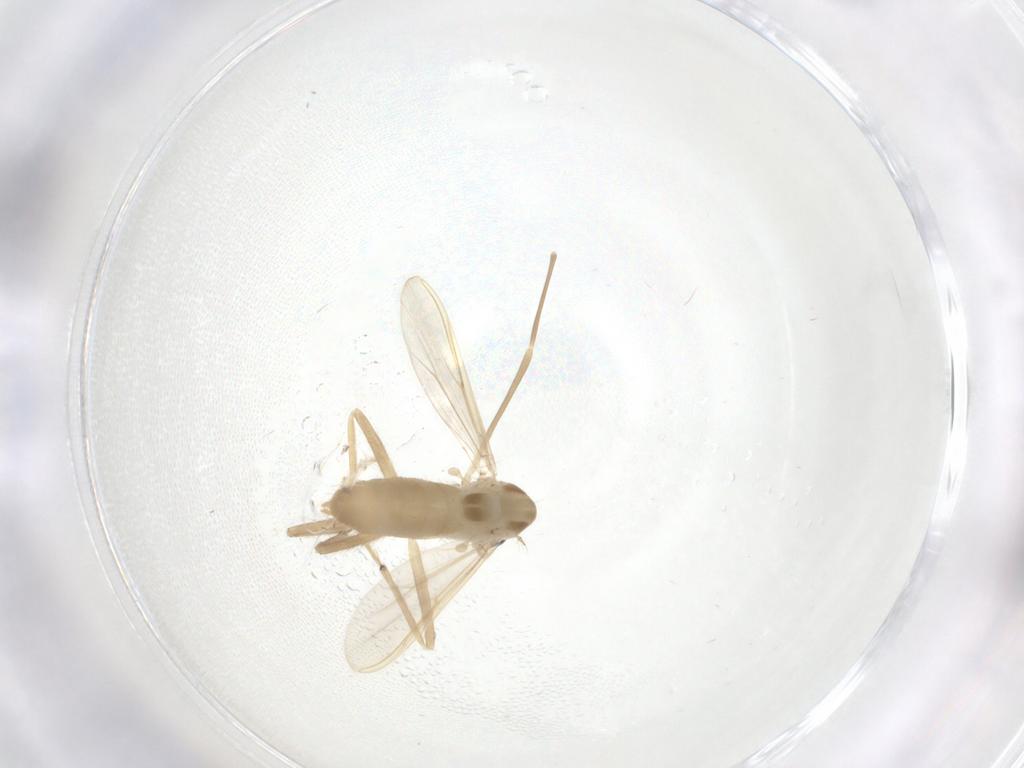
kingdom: Animalia
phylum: Arthropoda
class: Insecta
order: Diptera
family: Chironomidae
